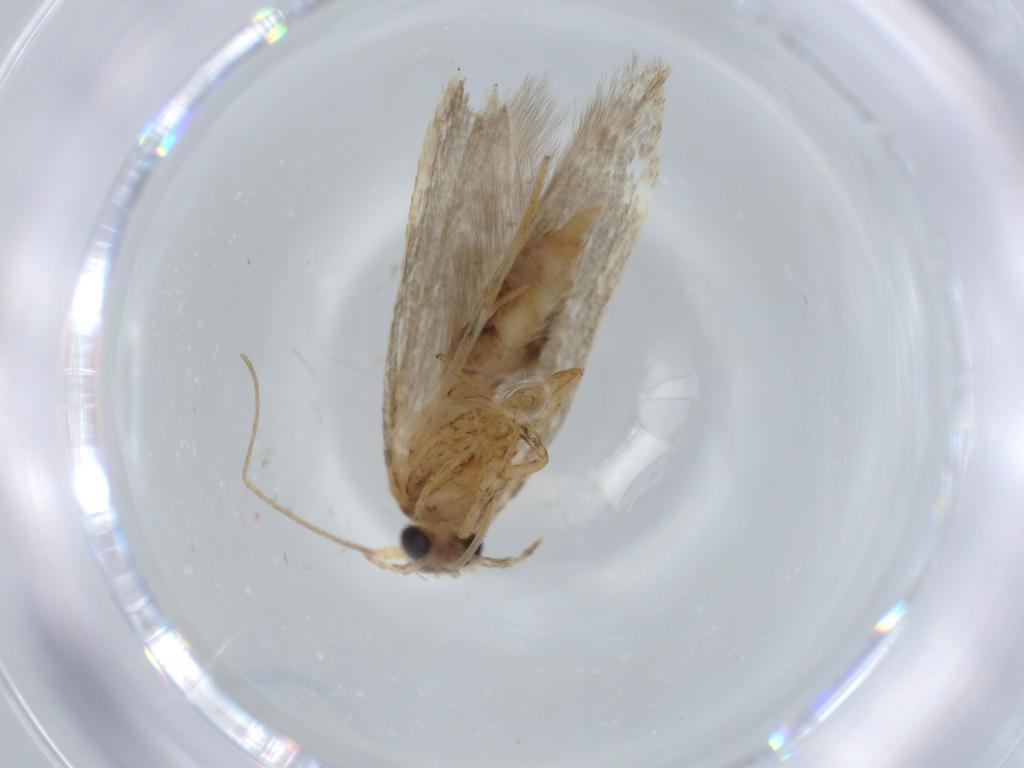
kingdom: Animalia
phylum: Arthropoda
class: Insecta
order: Lepidoptera
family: Coleophoridae
